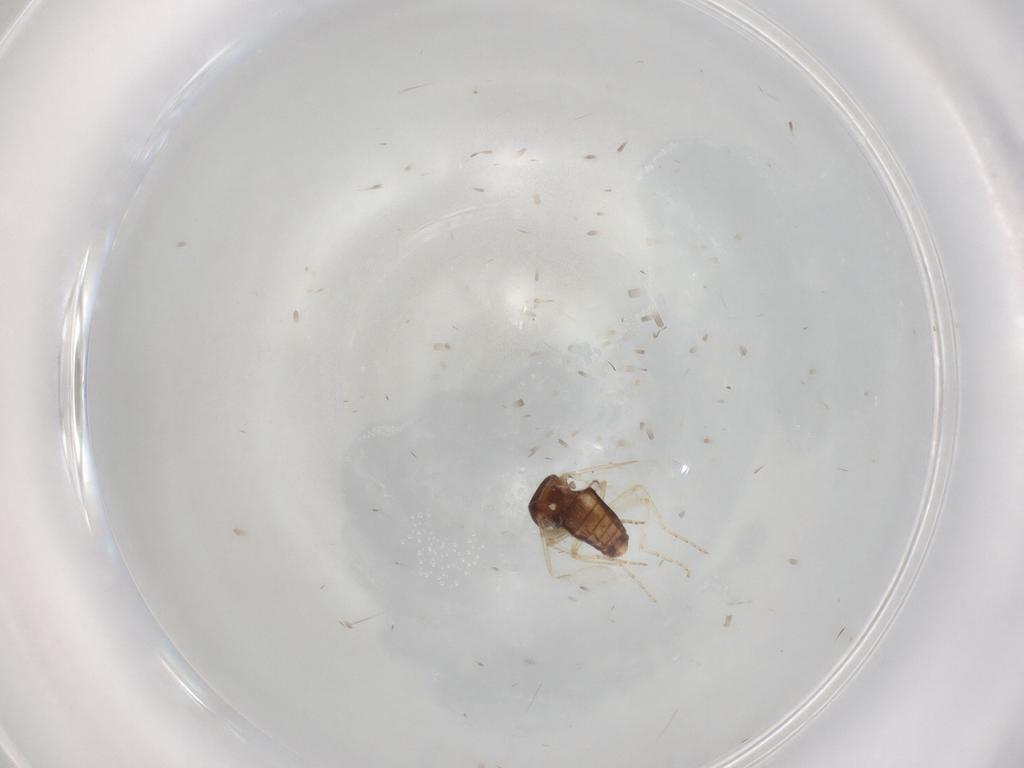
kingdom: Animalia
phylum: Arthropoda
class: Insecta
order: Diptera
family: Ceratopogonidae
